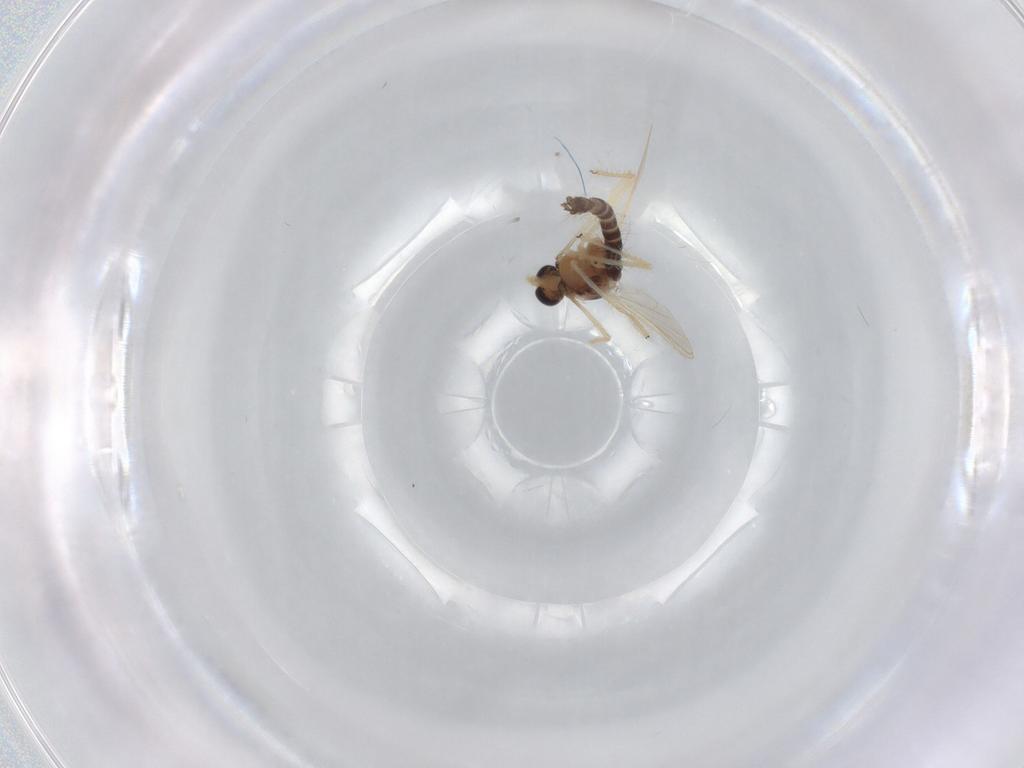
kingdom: Animalia
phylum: Arthropoda
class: Insecta
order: Diptera
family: Chironomidae
